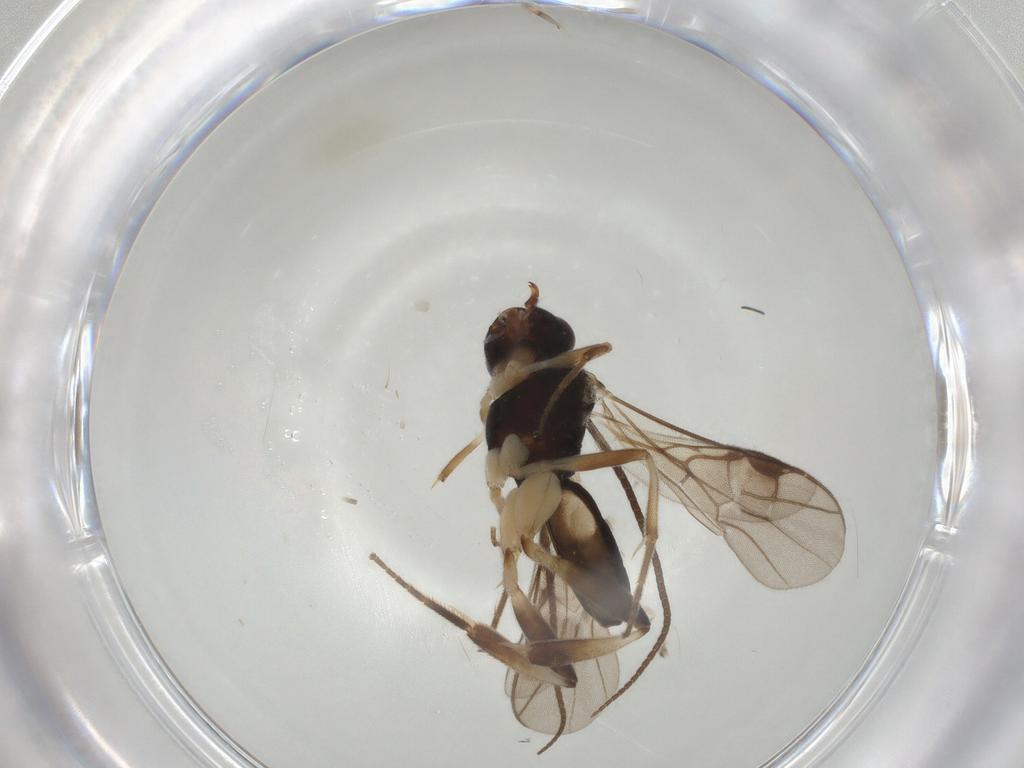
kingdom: Animalia
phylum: Arthropoda
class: Insecta
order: Hymenoptera
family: Braconidae
